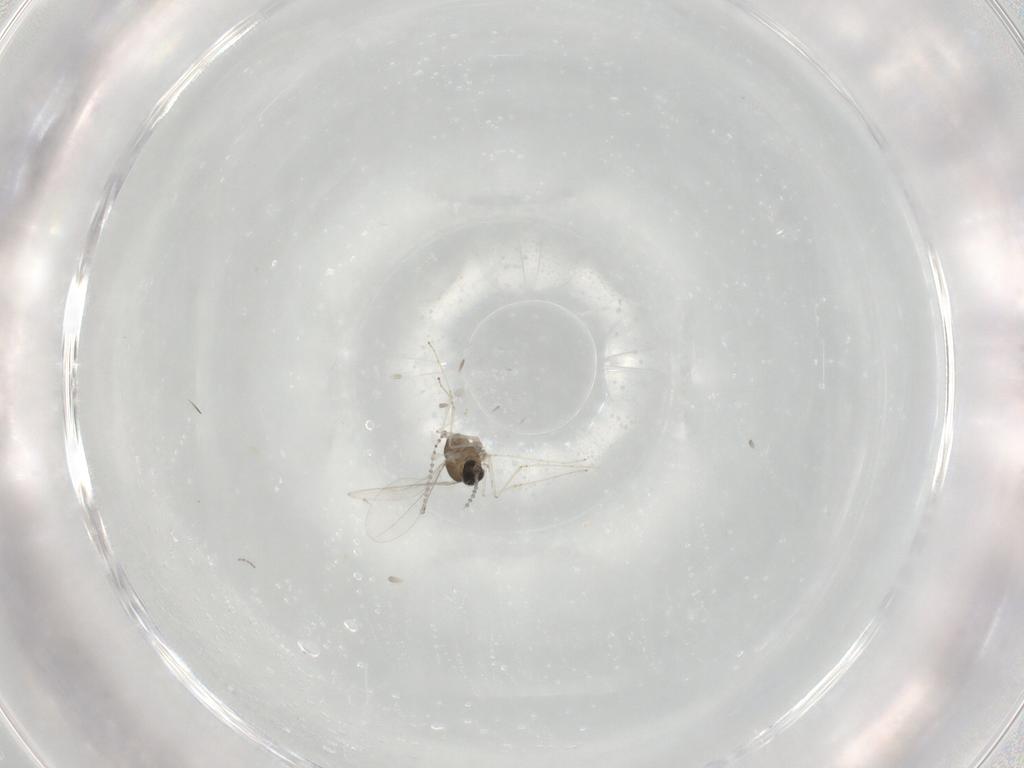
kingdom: Animalia
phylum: Arthropoda
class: Insecta
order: Diptera
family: Cecidomyiidae
